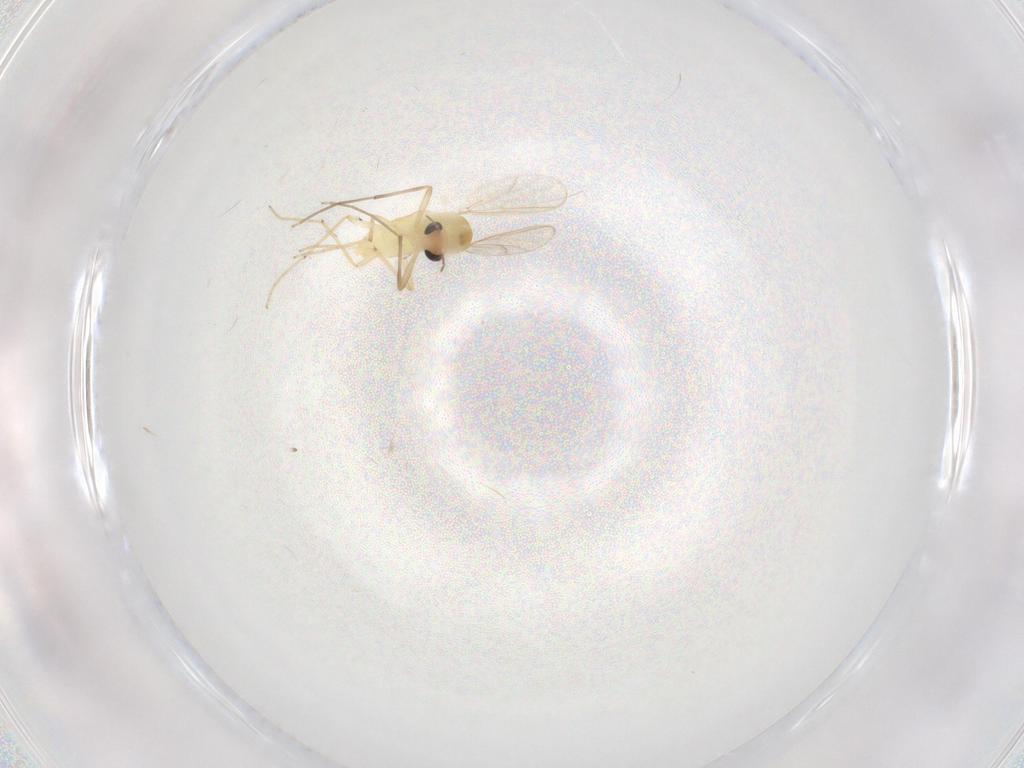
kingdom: Animalia
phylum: Arthropoda
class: Insecta
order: Diptera
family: Chironomidae
